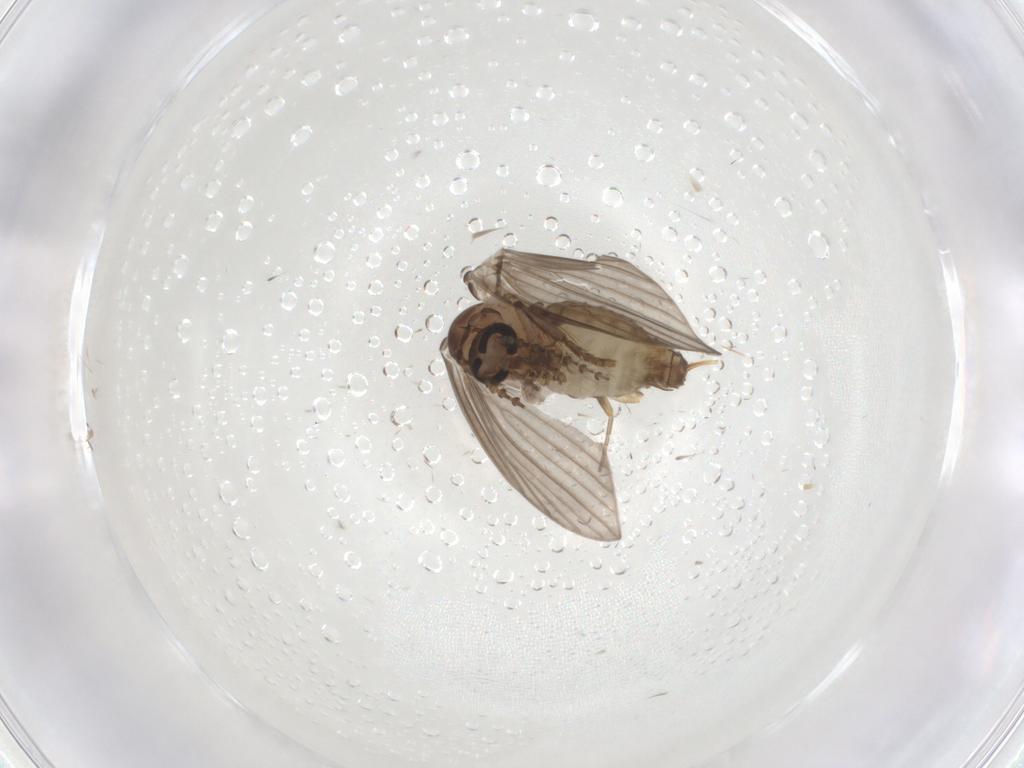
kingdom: Animalia
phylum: Arthropoda
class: Insecta
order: Diptera
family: Psychodidae
